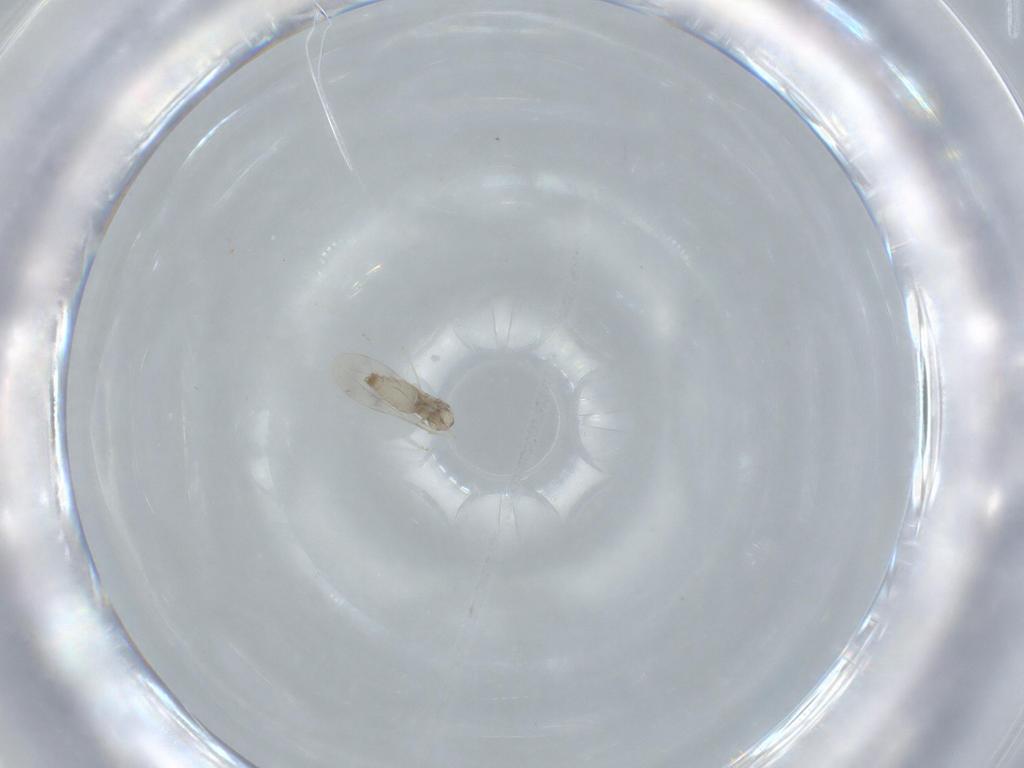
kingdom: Animalia
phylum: Arthropoda
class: Insecta
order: Diptera
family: Cecidomyiidae
